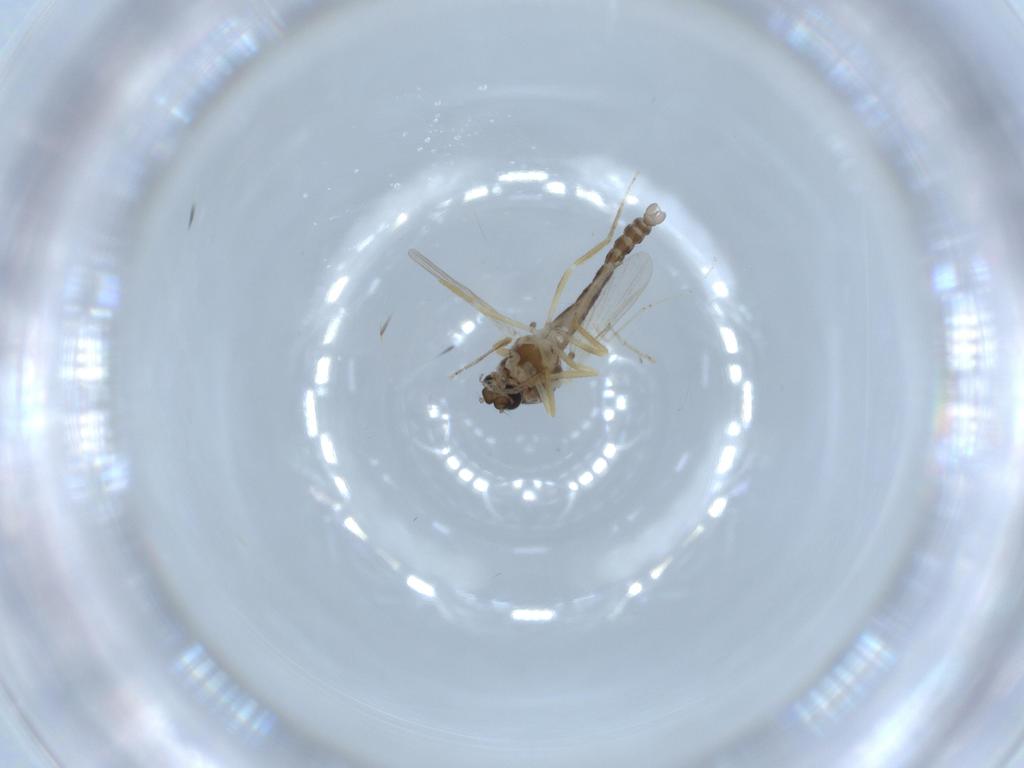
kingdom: Animalia
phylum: Arthropoda
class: Insecta
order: Diptera
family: Ceratopogonidae
